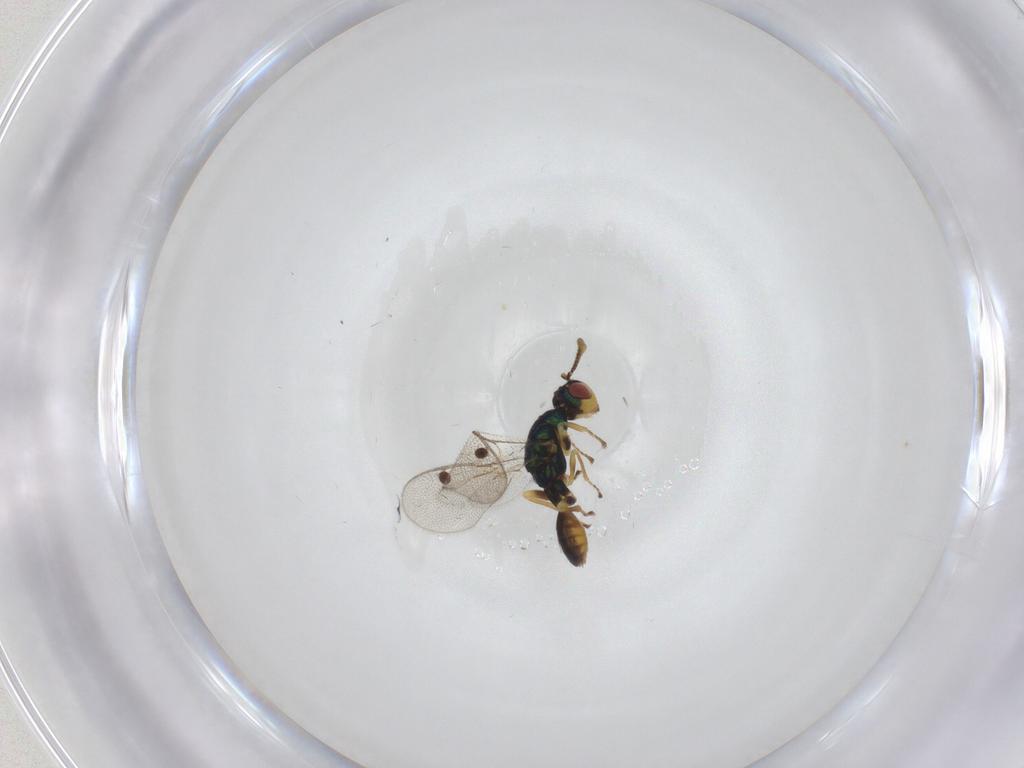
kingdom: Animalia
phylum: Arthropoda
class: Insecta
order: Hymenoptera
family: Megastigmidae
